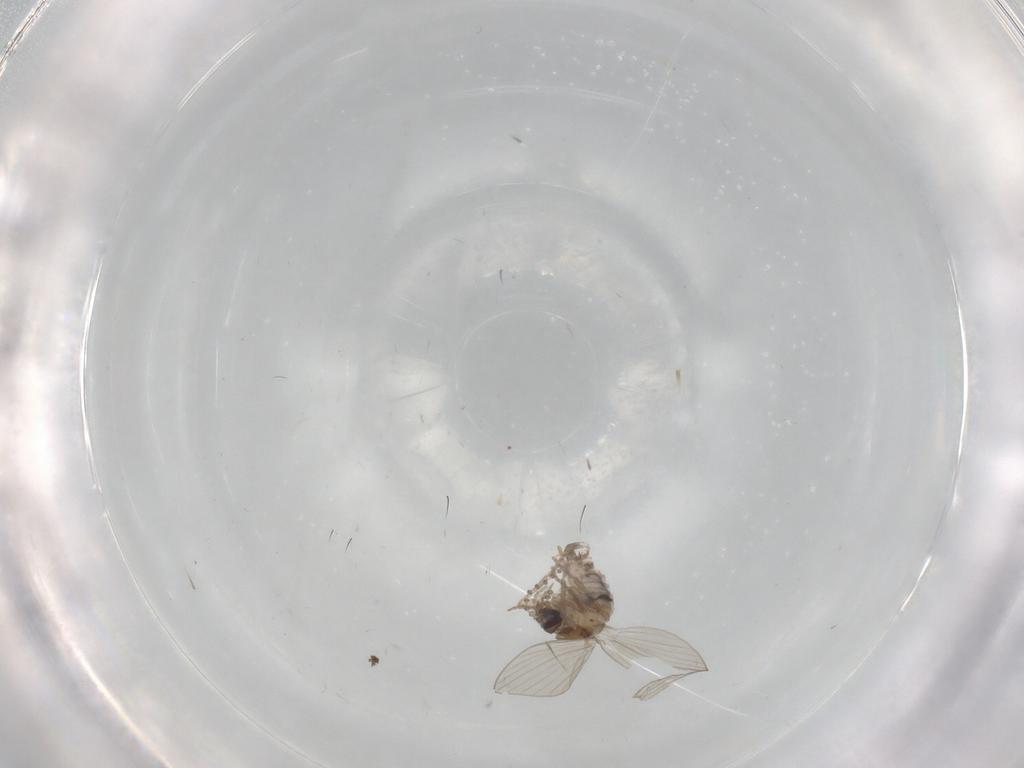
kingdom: Animalia
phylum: Arthropoda
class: Insecta
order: Diptera
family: Psychodidae
